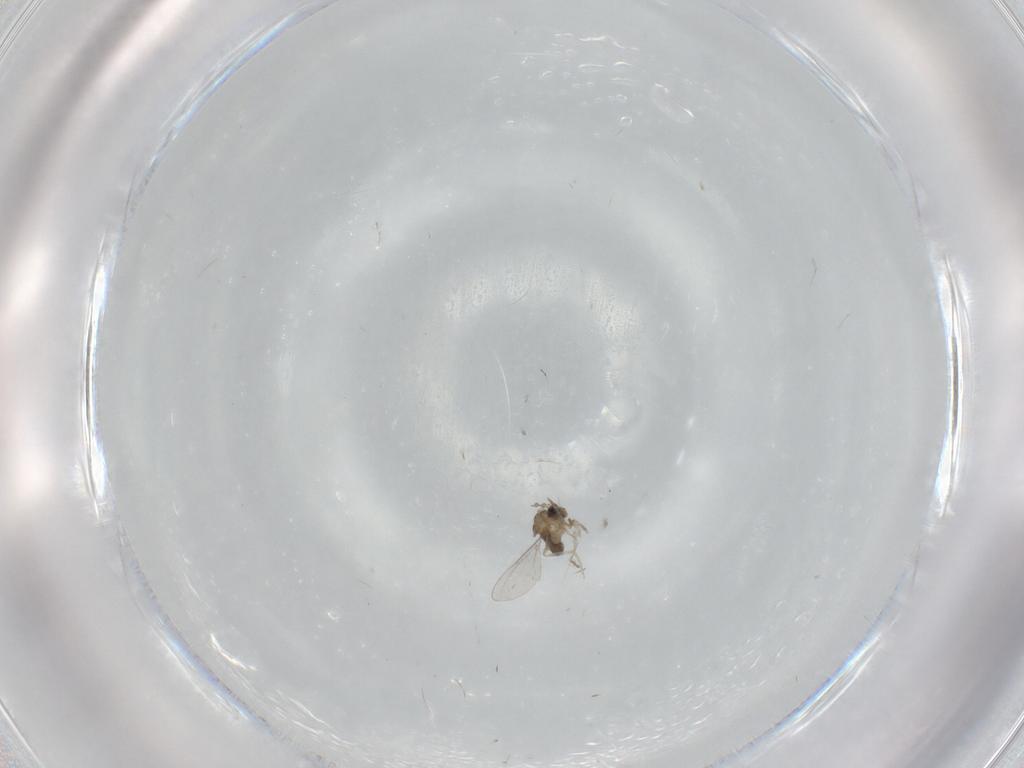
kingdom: Animalia
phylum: Arthropoda
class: Insecta
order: Diptera
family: Cecidomyiidae
